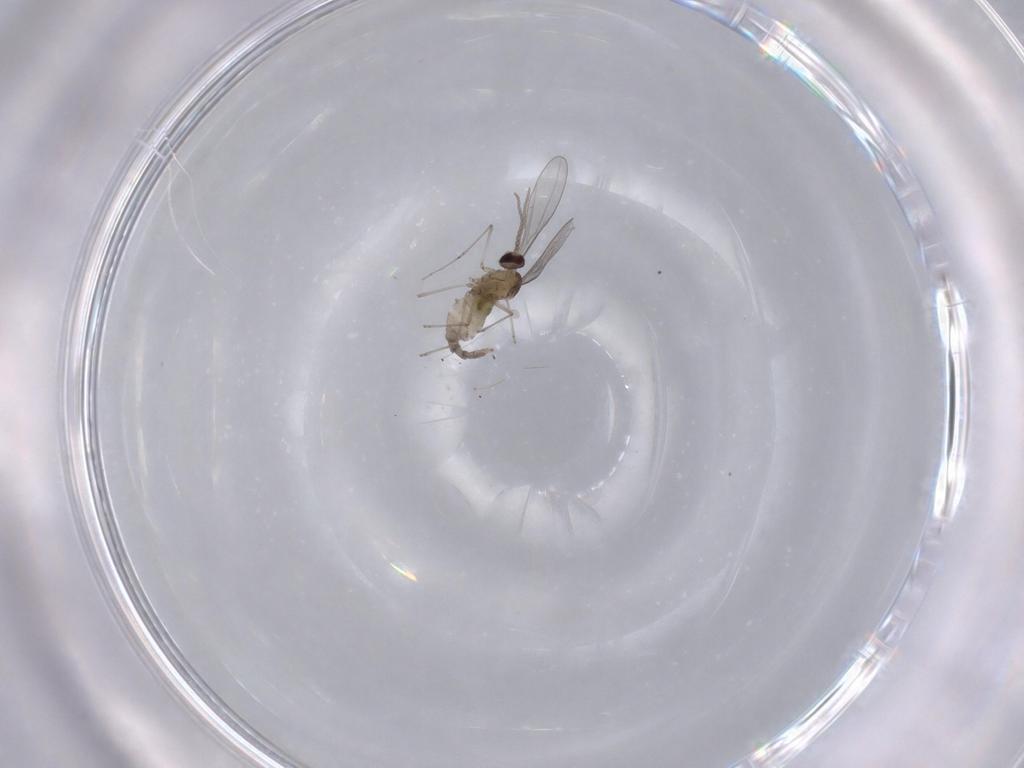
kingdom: Animalia
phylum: Arthropoda
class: Insecta
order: Diptera
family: Cecidomyiidae
